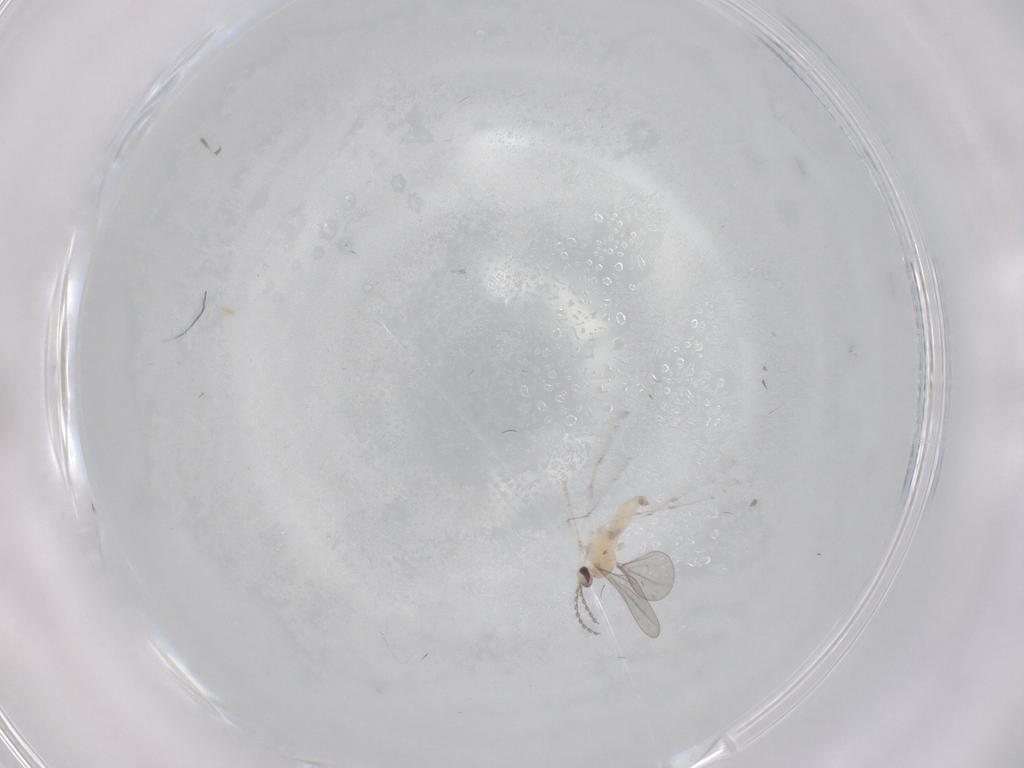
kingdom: Animalia
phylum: Arthropoda
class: Insecta
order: Diptera
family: Cecidomyiidae
